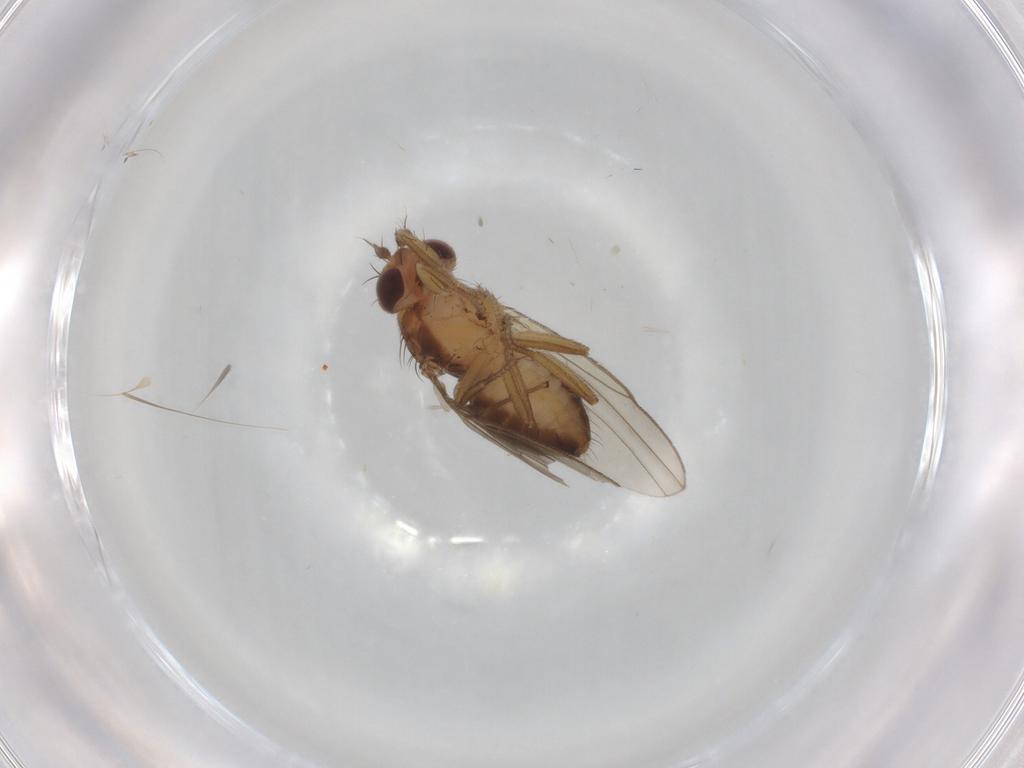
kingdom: Animalia
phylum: Arthropoda
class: Insecta
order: Diptera
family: Drosophilidae
